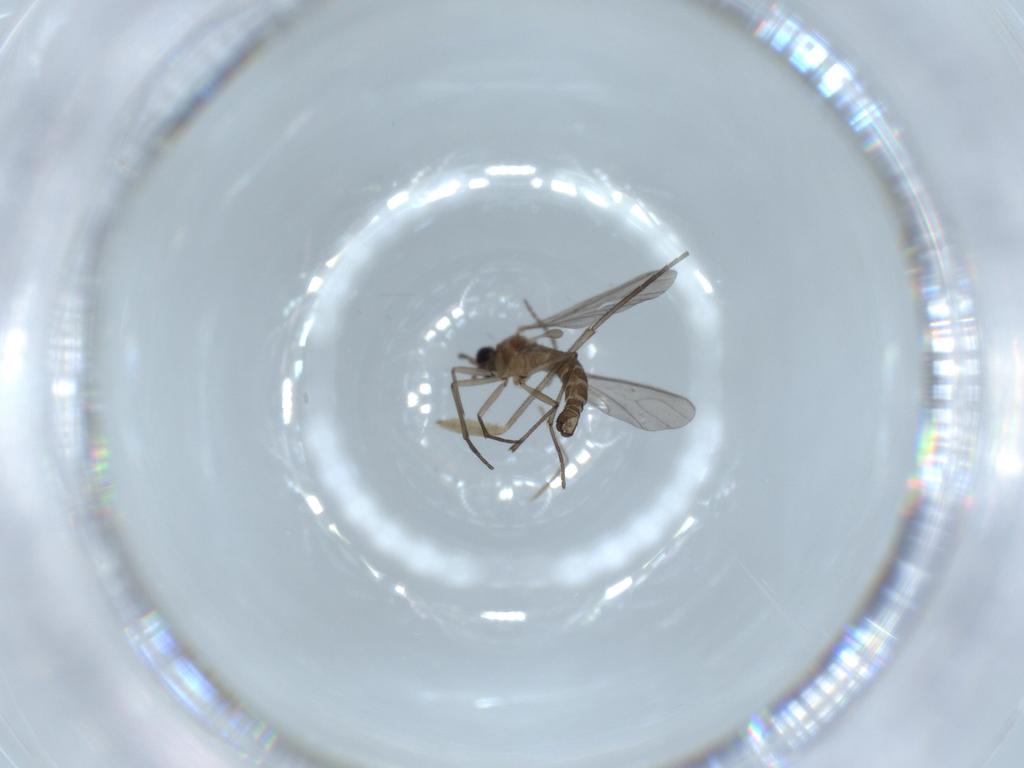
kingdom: Animalia
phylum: Arthropoda
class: Insecta
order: Diptera
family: Sciaridae
